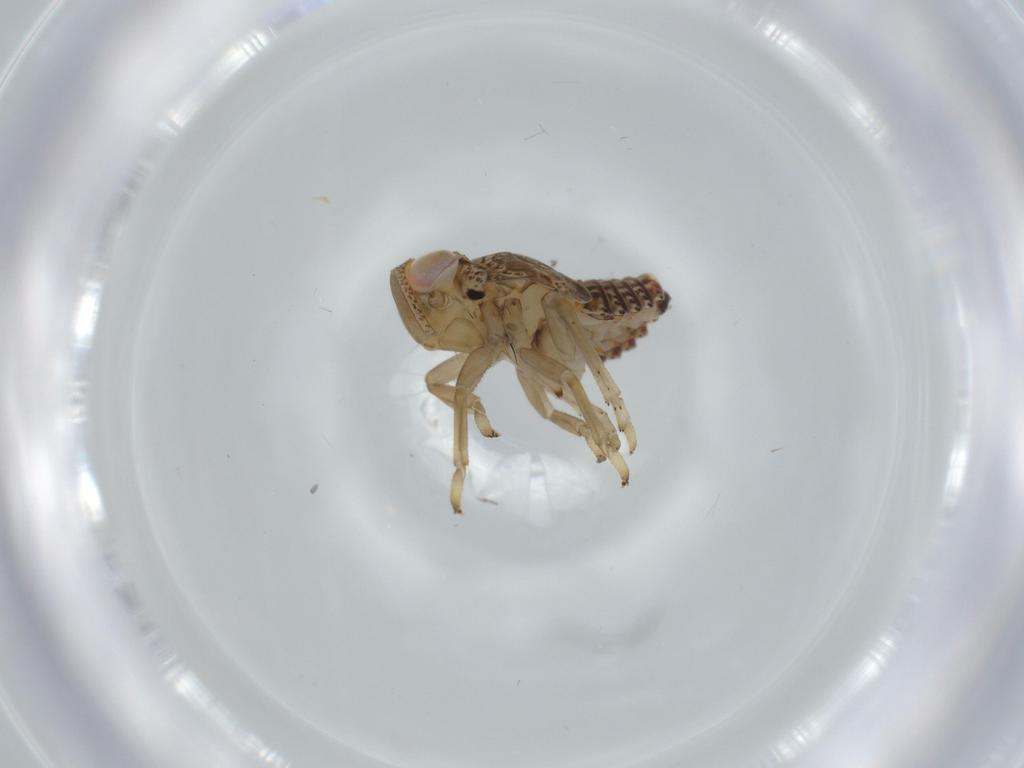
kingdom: Animalia
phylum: Arthropoda
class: Insecta
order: Hemiptera
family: Issidae
